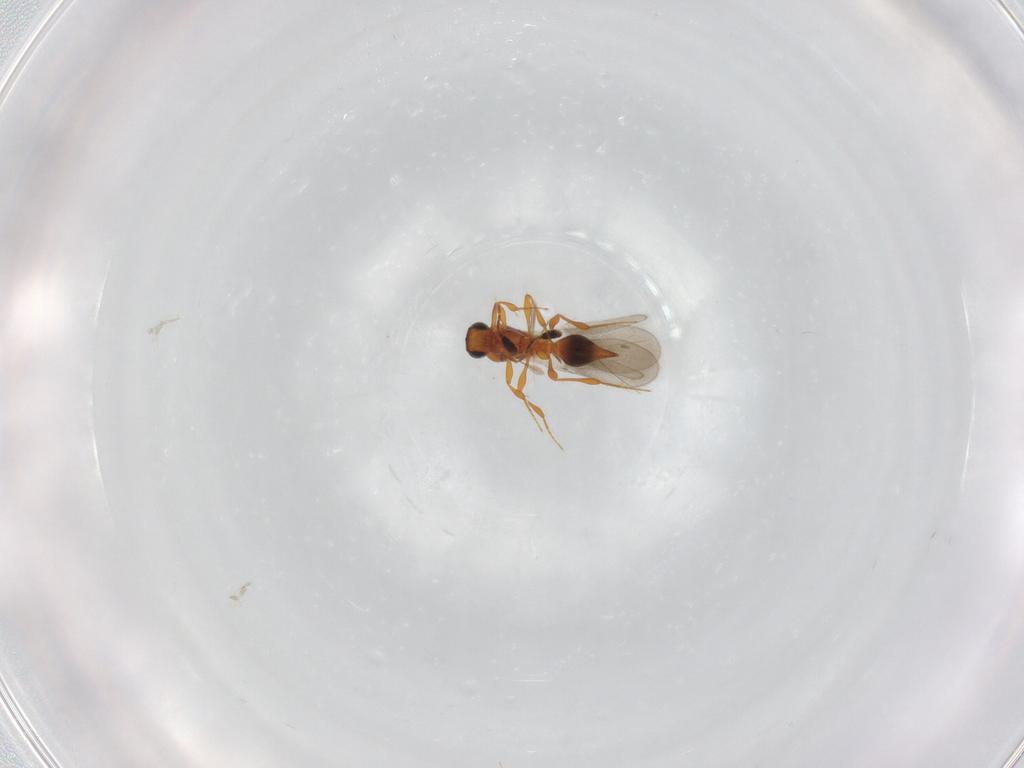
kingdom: Animalia
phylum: Arthropoda
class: Insecta
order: Hymenoptera
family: Platygastridae
